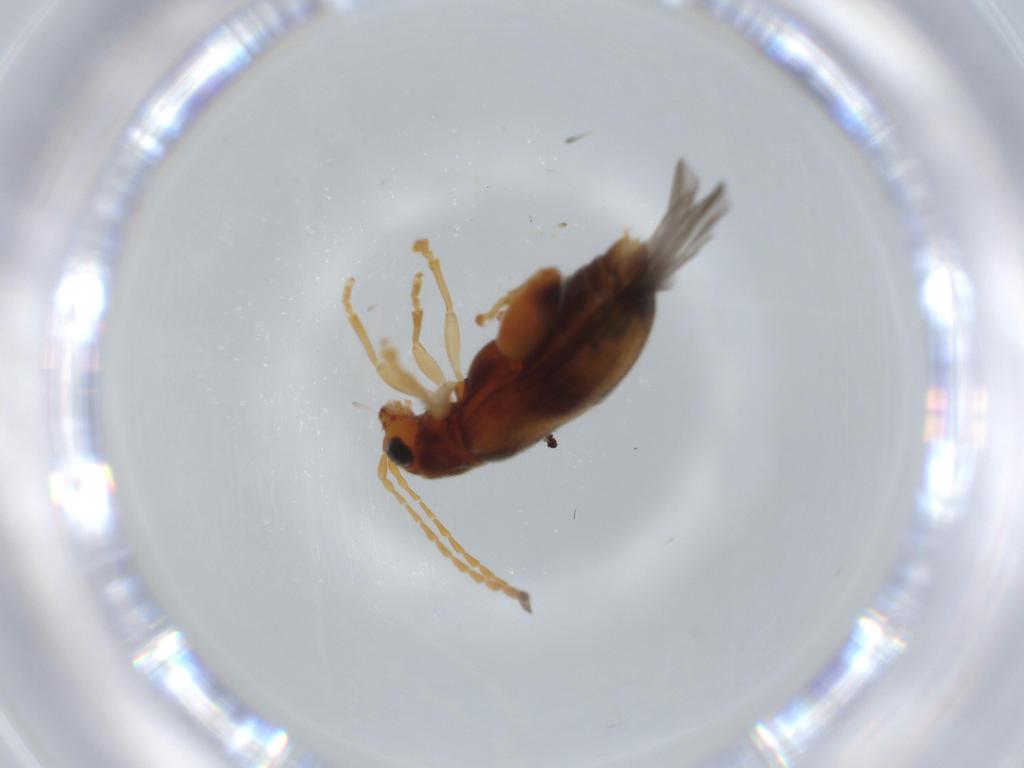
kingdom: Animalia
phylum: Arthropoda
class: Insecta
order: Coleoptera
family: Chrysomelidae
